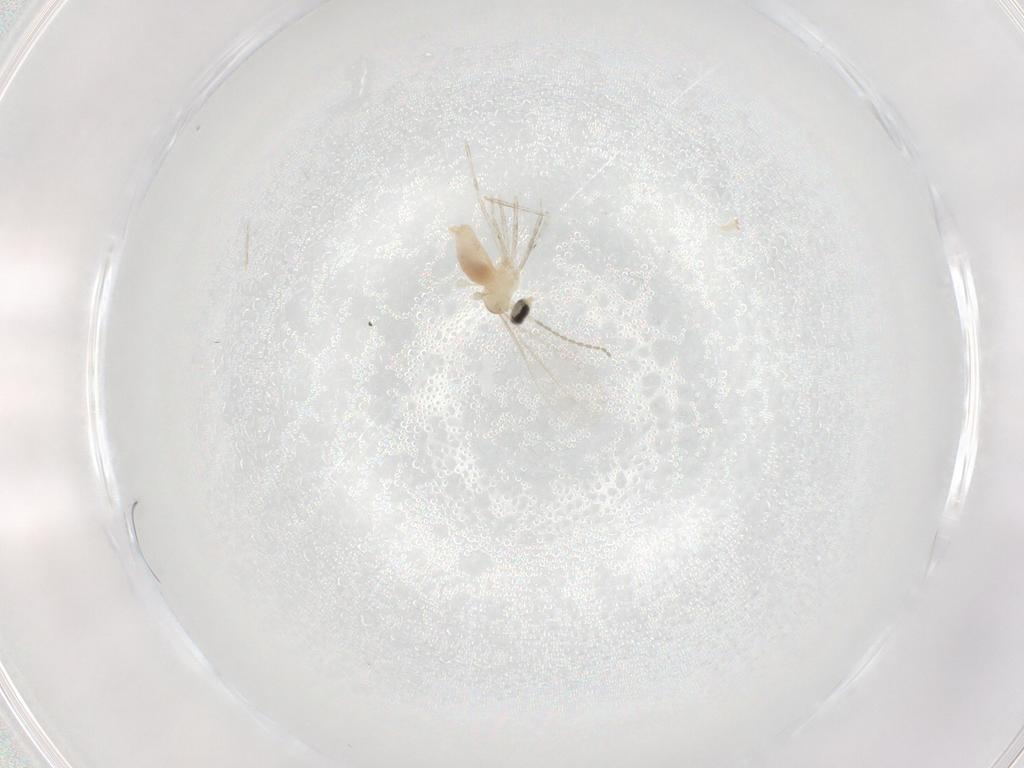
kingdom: Animalia
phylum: Arthropoda
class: Insecta
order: Diptera
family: Cecidomyiidae
